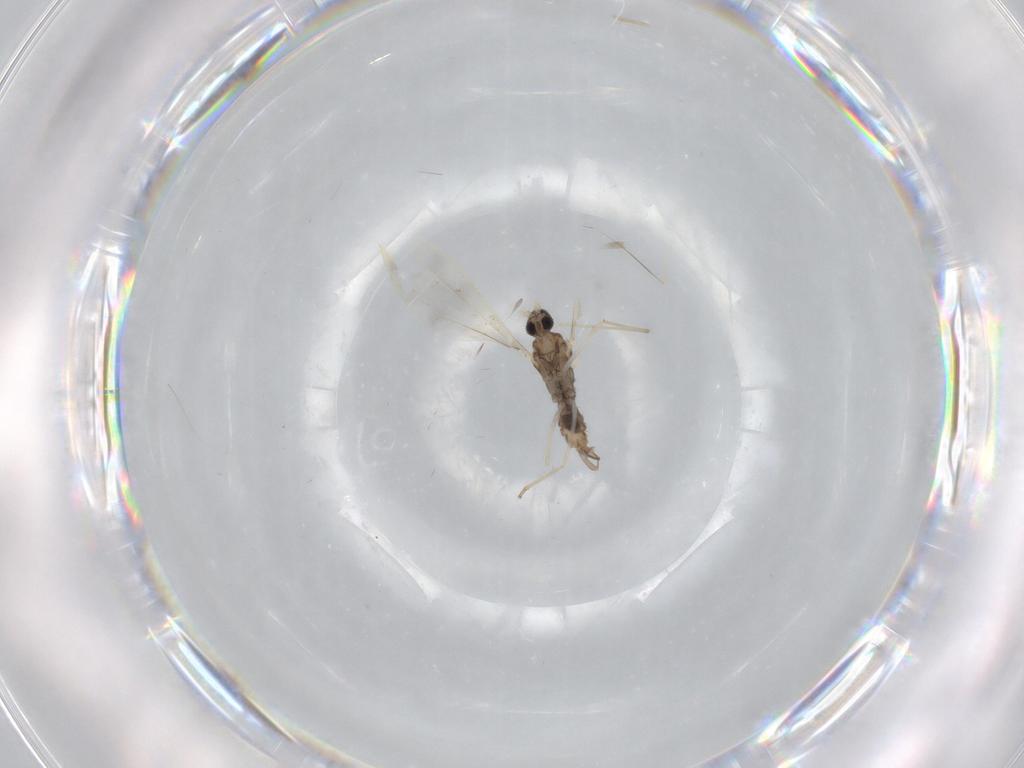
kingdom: Animalia
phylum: Arthropoda
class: Insecta
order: Diptera
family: Cecidomyiidae
